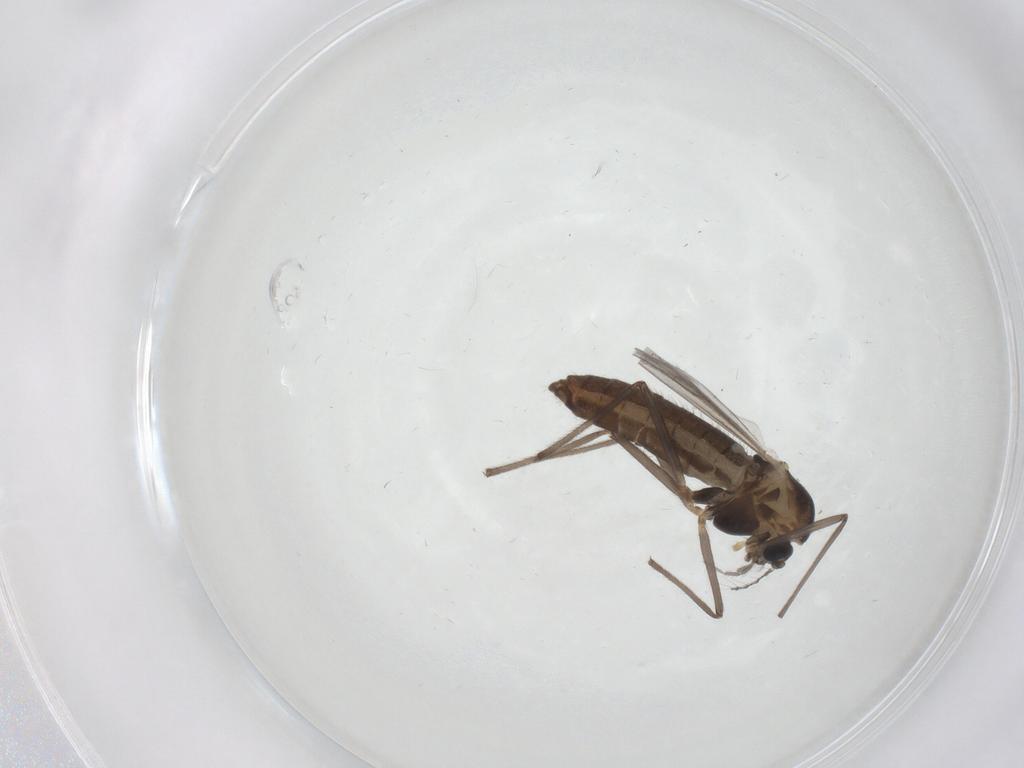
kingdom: Animalia
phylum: Arthropoda
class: Insecta
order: Diptera
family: Chironomidae
